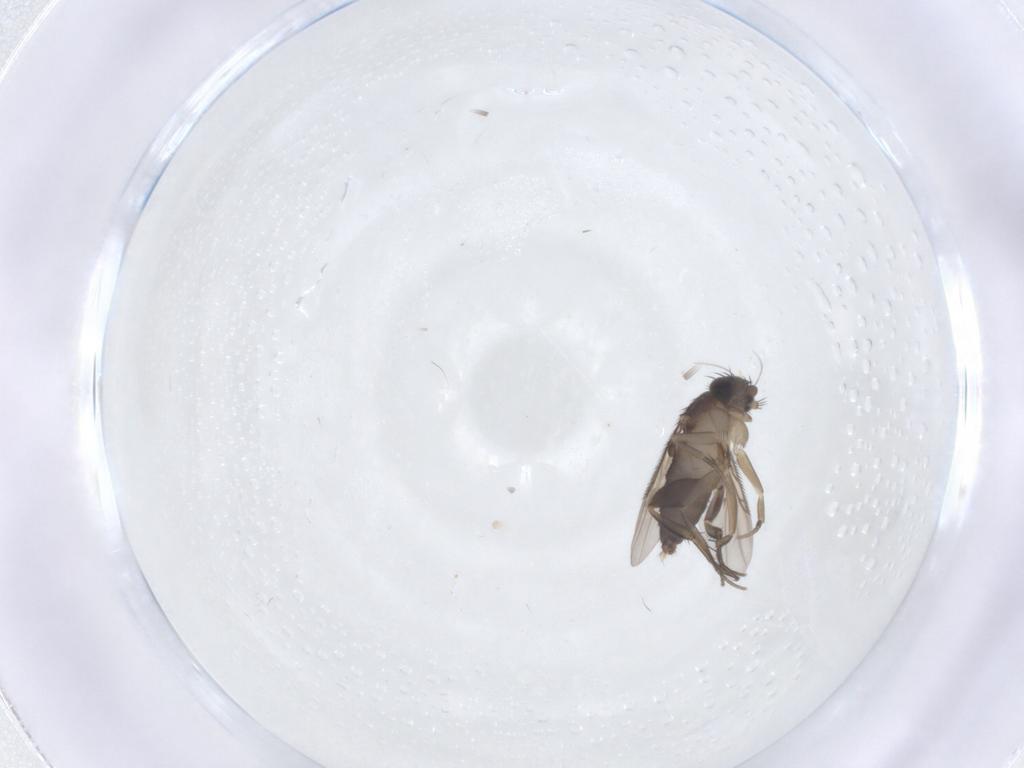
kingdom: Animalia
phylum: Arthropoda
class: Insecta
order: Diptera
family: Phoridae
